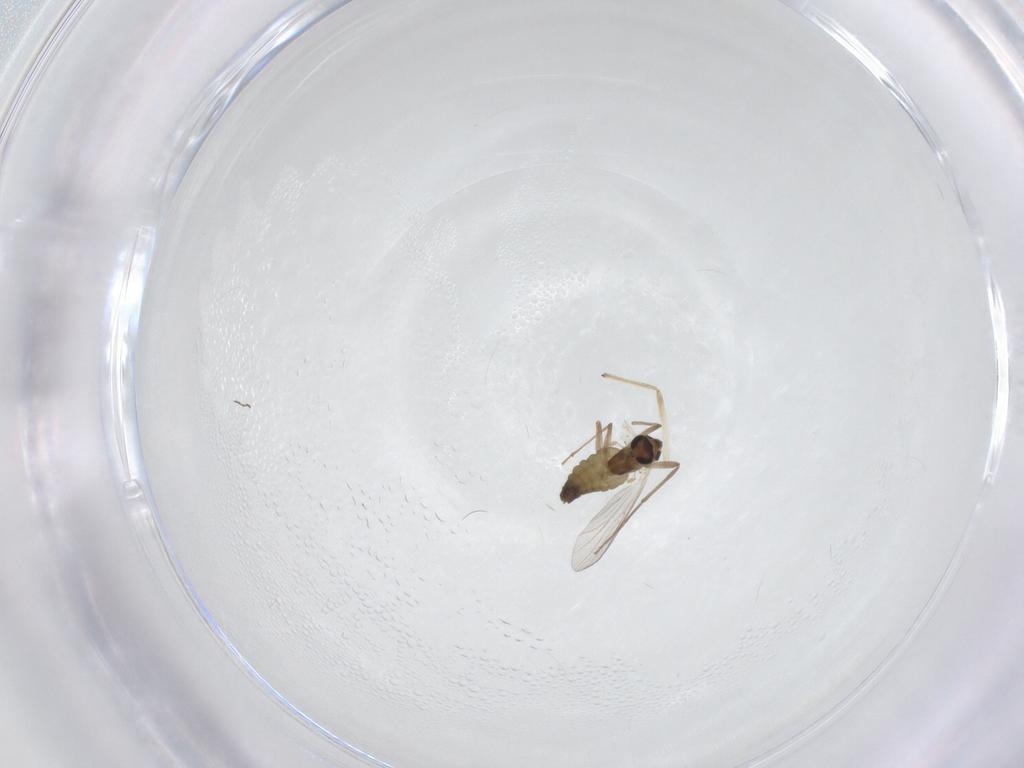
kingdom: Animalia
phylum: Arthropoda
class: Insecta
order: Diptera
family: Chironomidae
